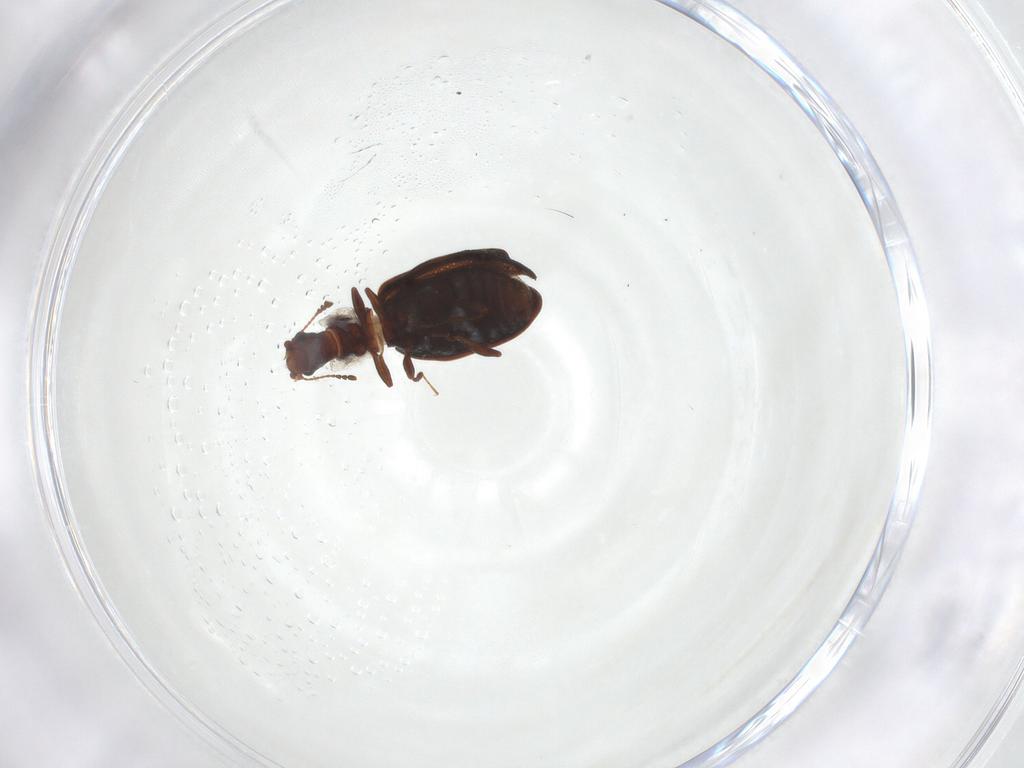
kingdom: Animalia
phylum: Arthropoda
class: Insecta
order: Coleoptera
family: Latridiidae
